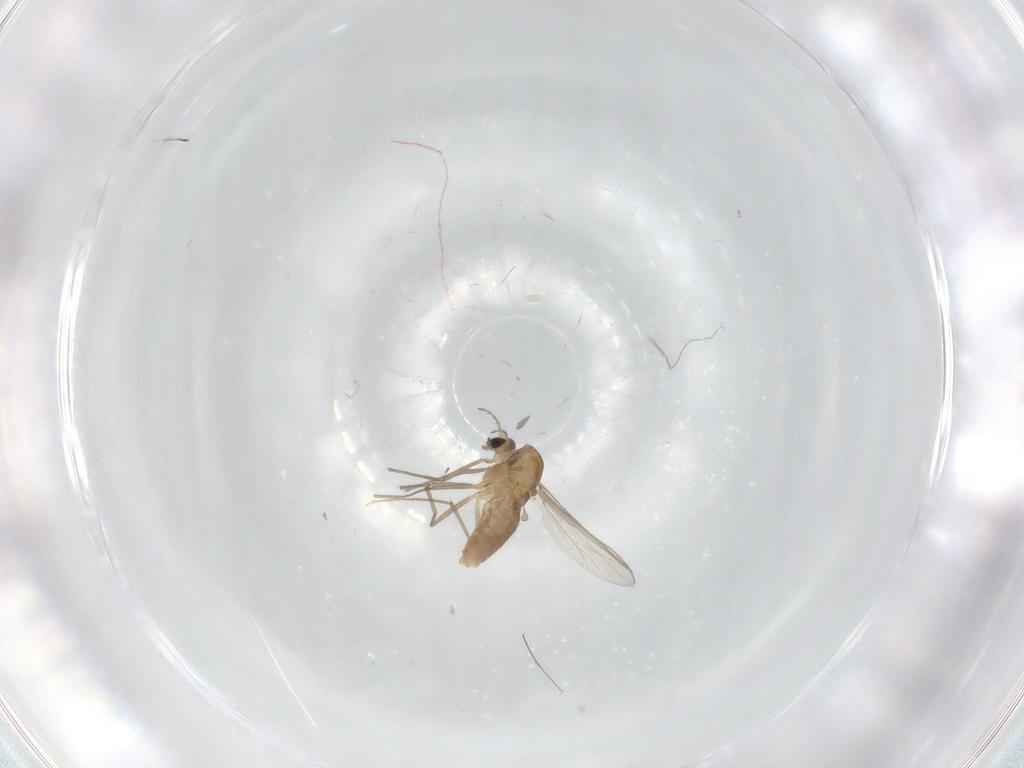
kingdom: Animalia
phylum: Arthropoda
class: Insecta
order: Diptera
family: Chironomidae
